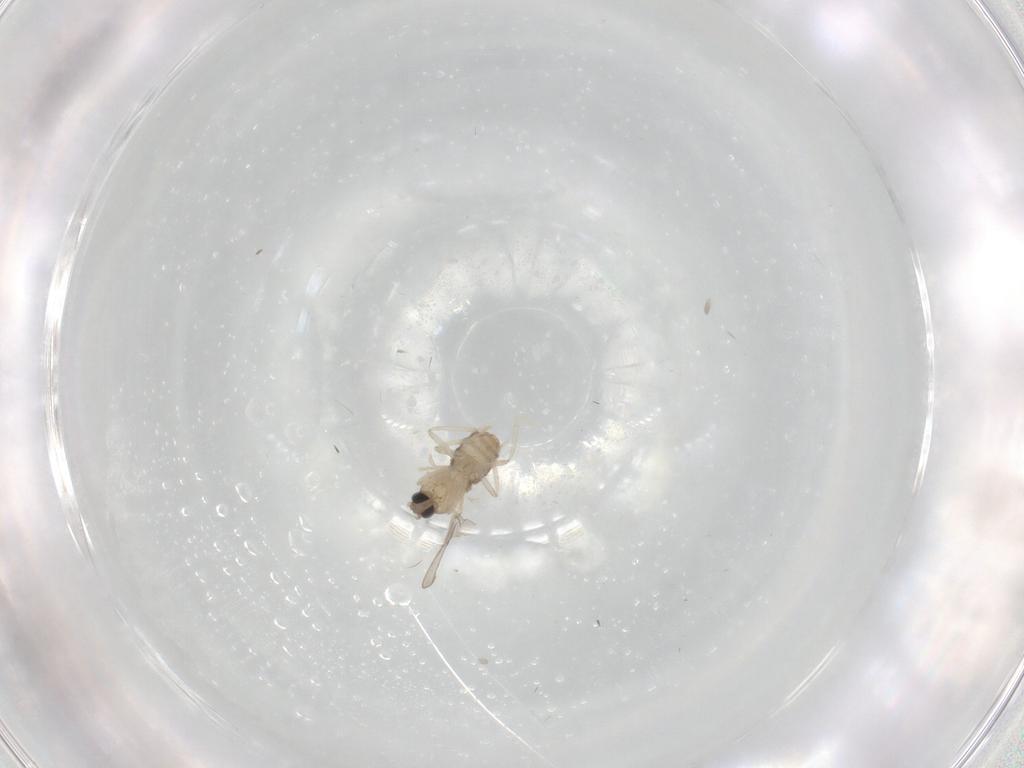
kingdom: Animalia
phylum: Arthropoda
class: Insecta
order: Diptera
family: Cecidomyiidae
